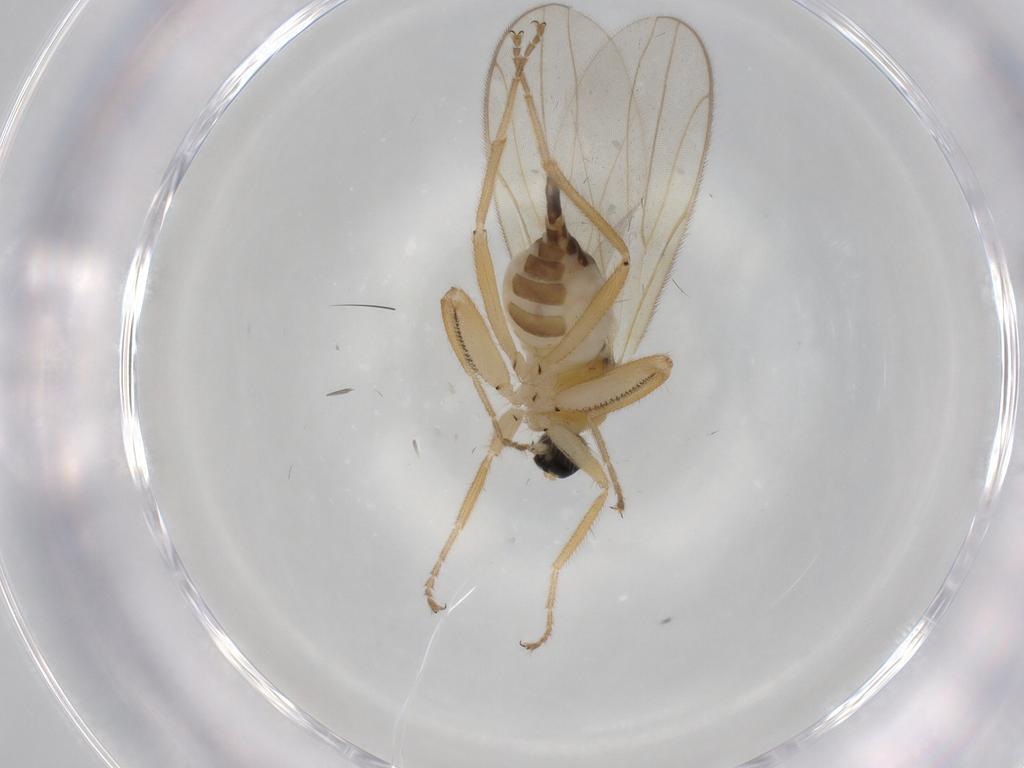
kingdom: Animalia
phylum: Arthropoda
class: Insecta
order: Diptera
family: Hybotidae
